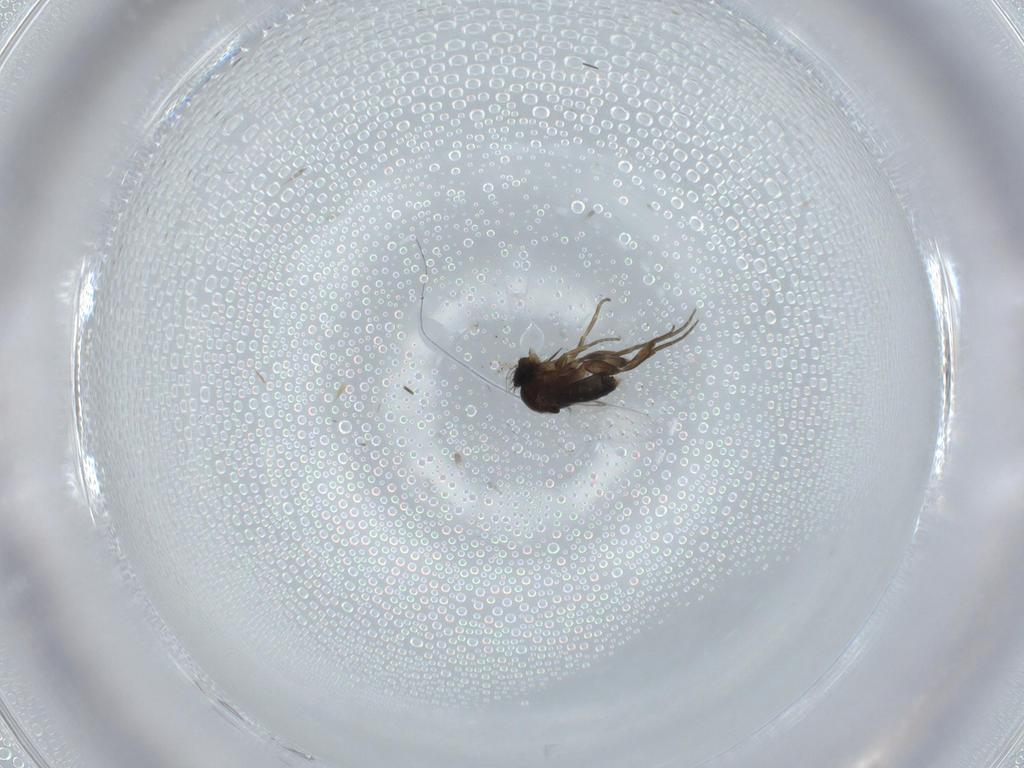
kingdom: Animalia
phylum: Arthropoda
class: Insecta
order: Diptera
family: Phoridae
